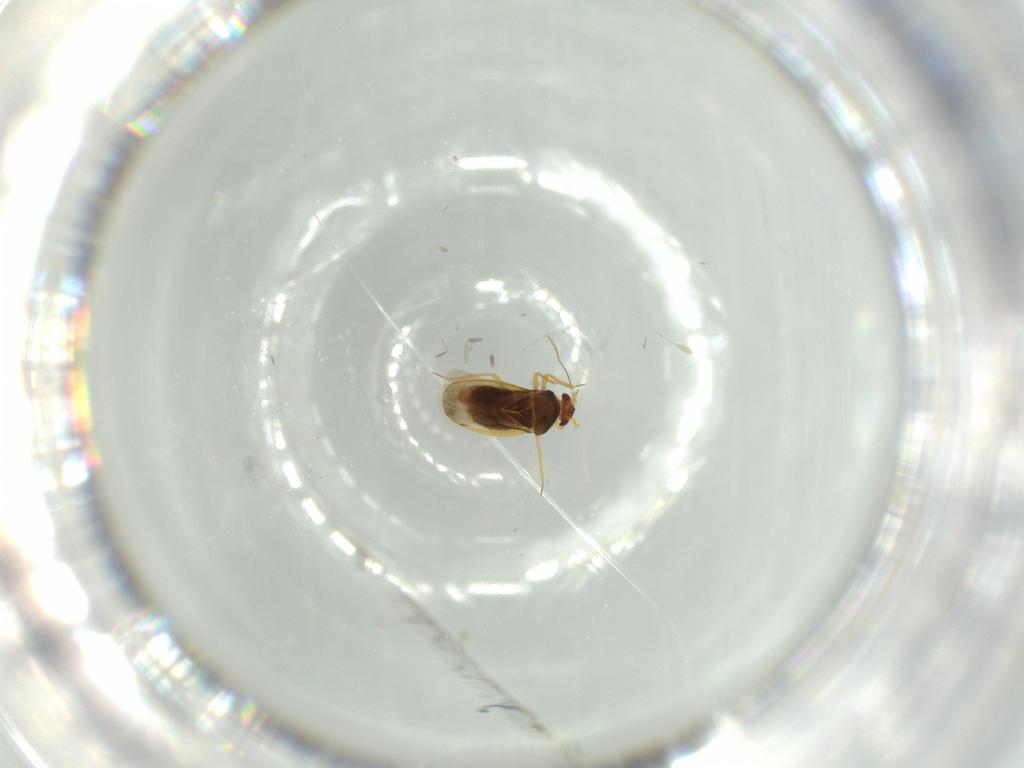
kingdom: Animalia
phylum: Arthropoda
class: Insecta
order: Hemiptera
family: Schizopteridae
